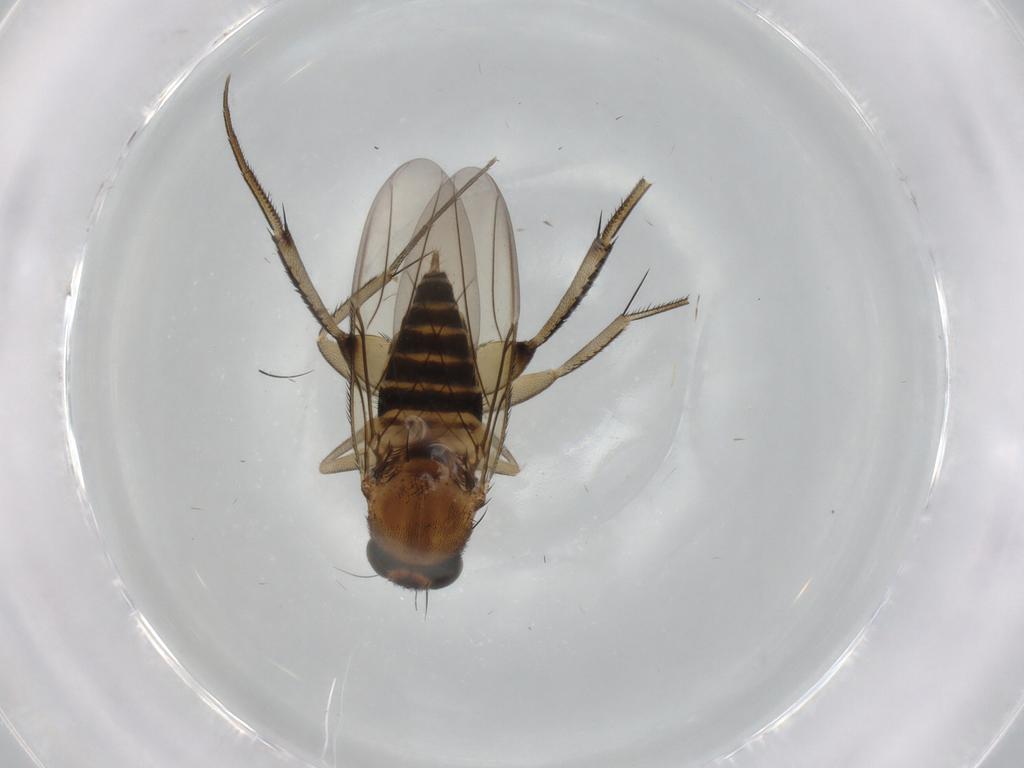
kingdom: Animalia
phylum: Arthropoda
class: Insecta
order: Diptera
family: Phoridae
